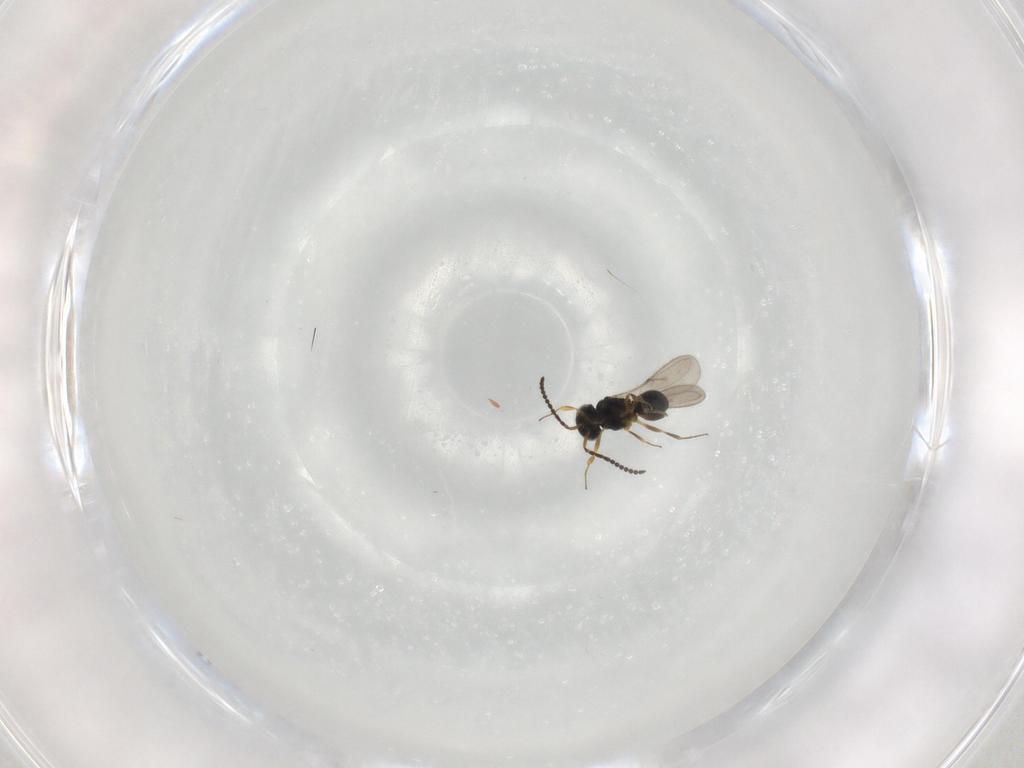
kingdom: Animalia
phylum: Arthropoda
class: Insecta
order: Hymenoptera
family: Scelionidae
